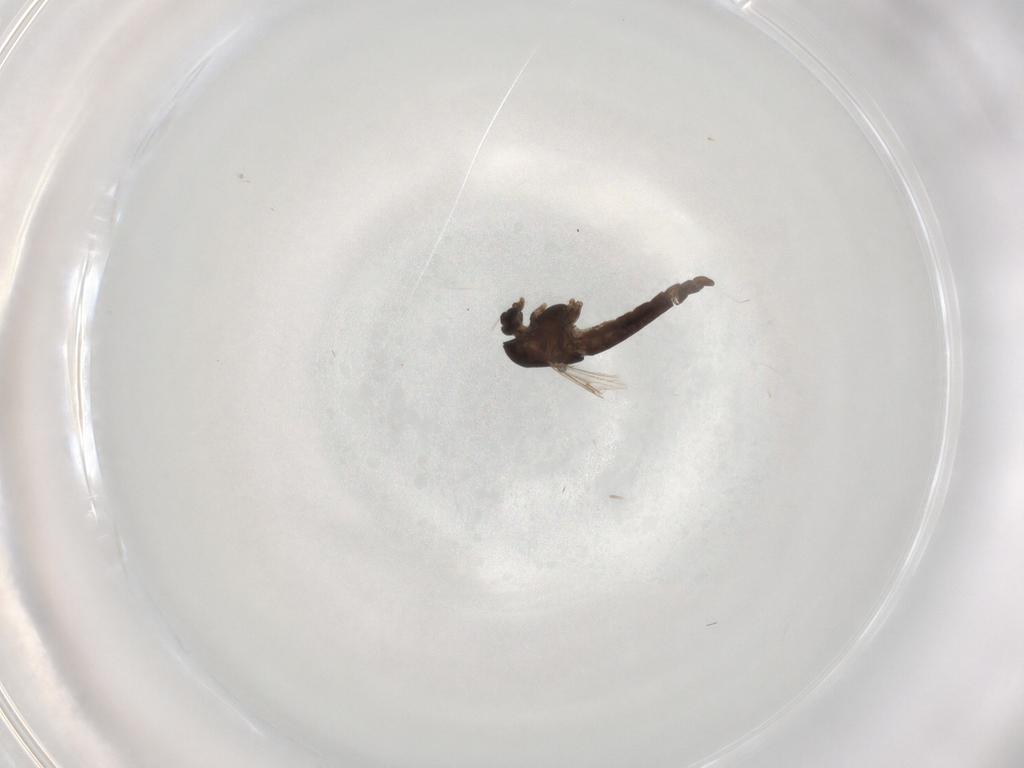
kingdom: Animalia
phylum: Arthropoda
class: Insecta
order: Diptera
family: Chironomidae
